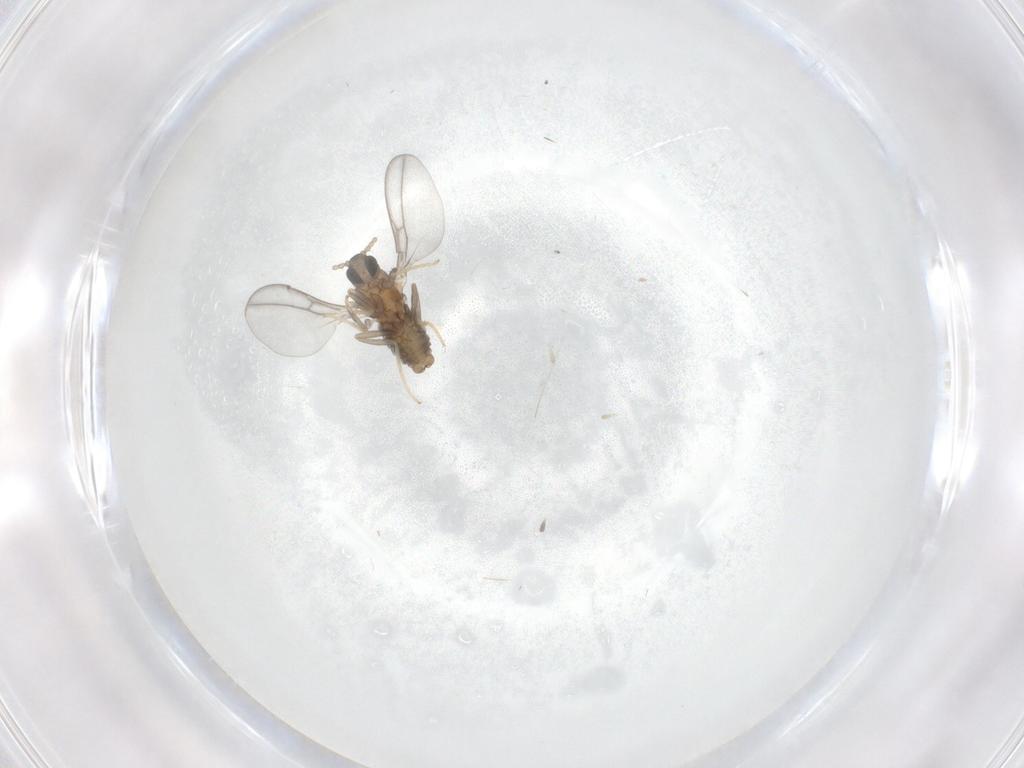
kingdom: Animalia
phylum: Arthropoda
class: Insecta
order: Diptera
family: Cecidomyiidae
